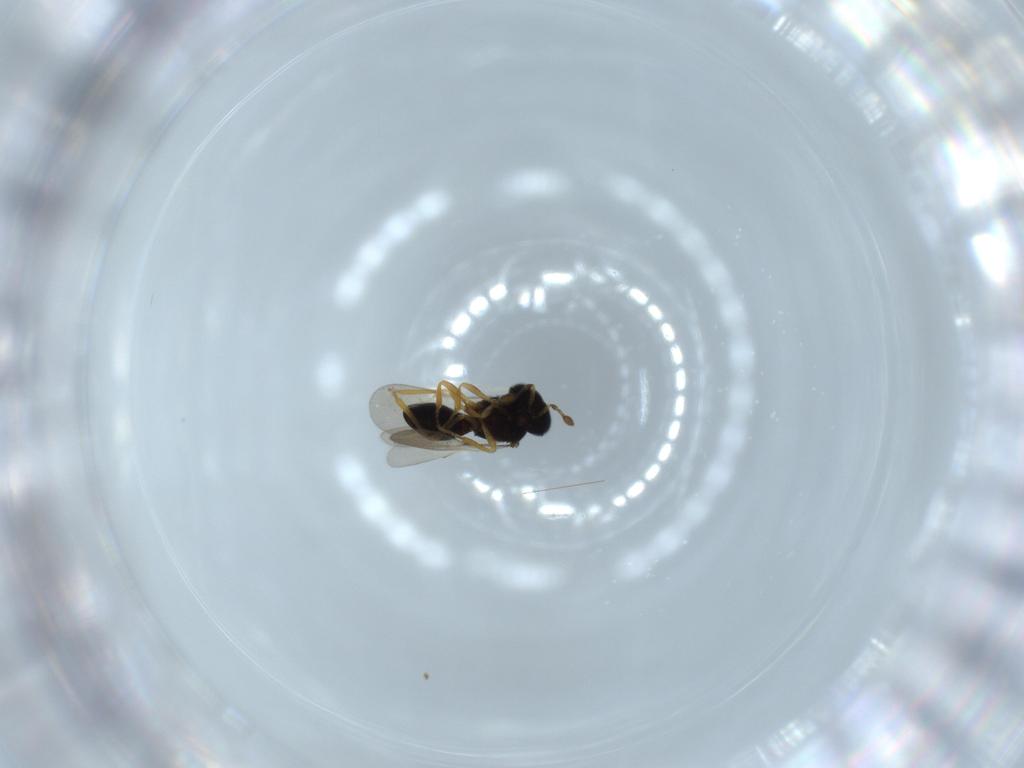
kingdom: Animalia
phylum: Arthropoda
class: Insecta
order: Hymenoptera
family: Scelionidae
